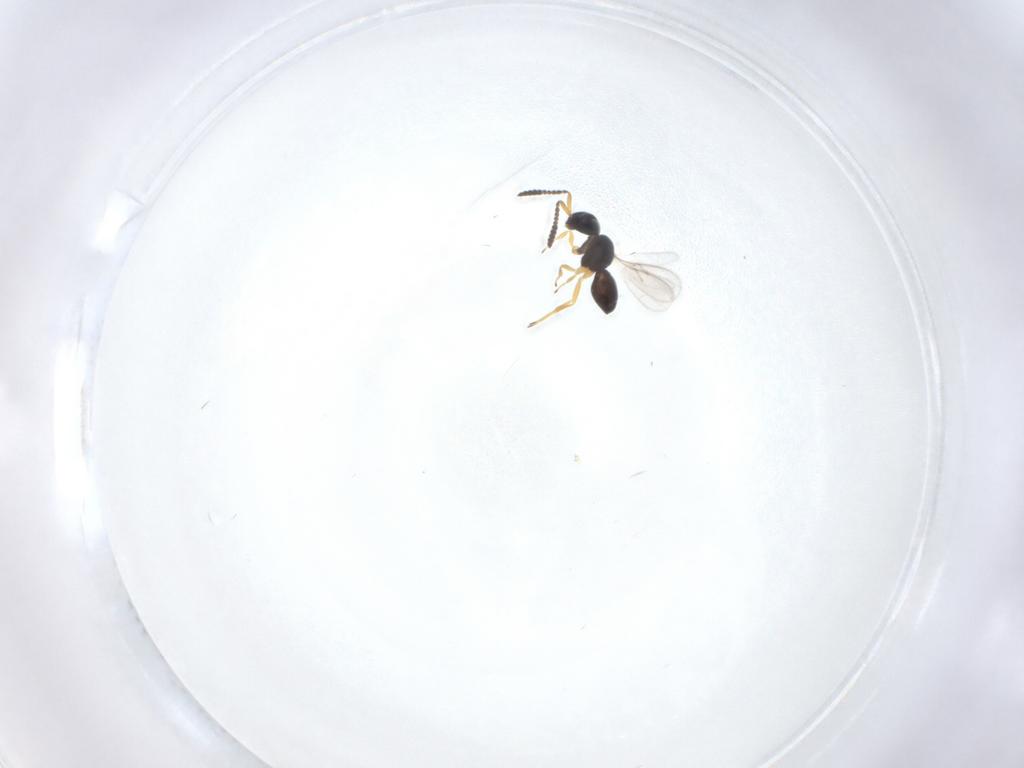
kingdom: Animalia
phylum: Arthropoda
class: Insecta
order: Hymenoptera
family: Scelionidae
